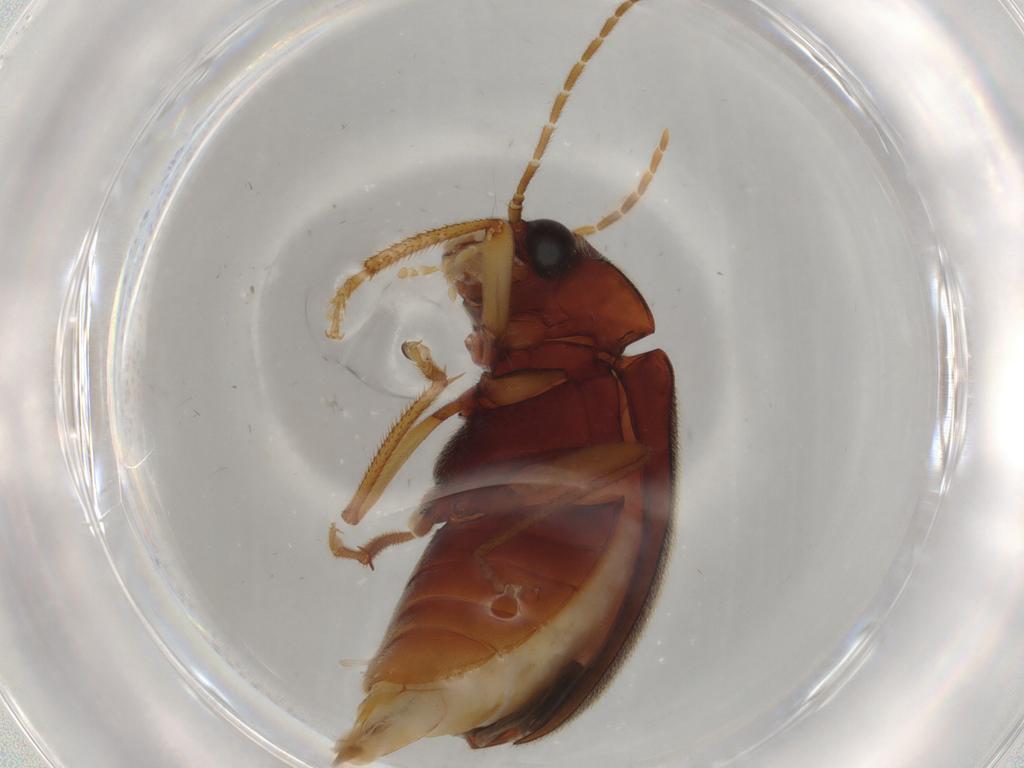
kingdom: Animalia
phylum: Arthropoda
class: Insecta
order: Coleoptera
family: Ptilodactylidae
